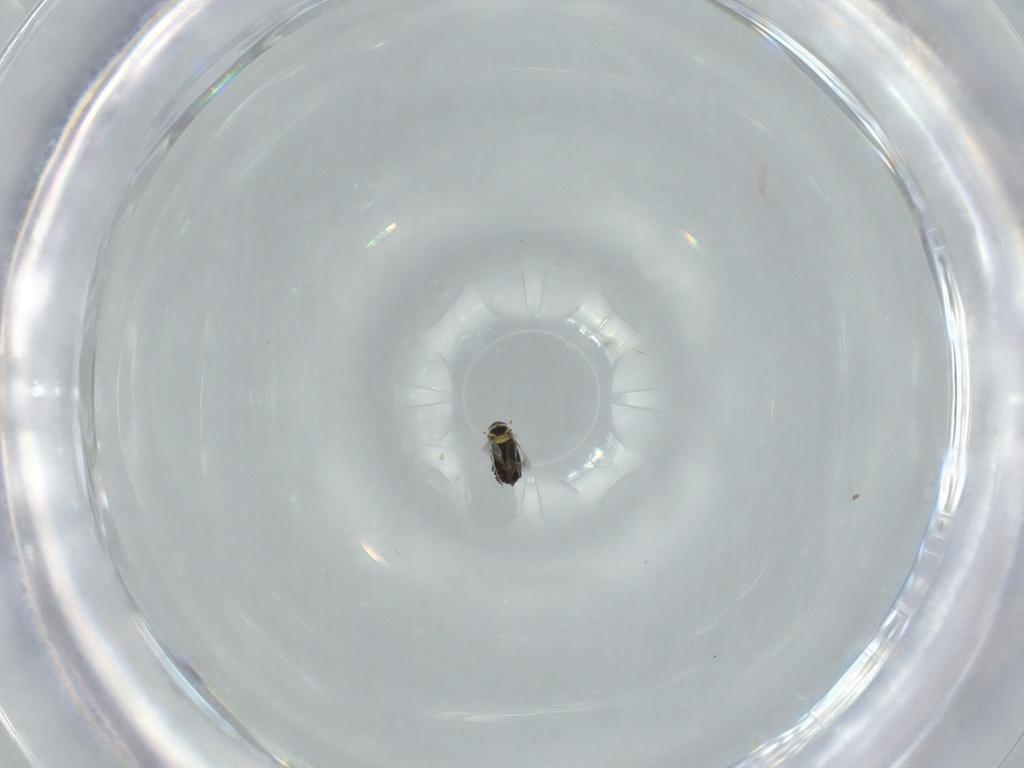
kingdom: Animalia
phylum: Arthropoda
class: Insecta
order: Hymenoptera
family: Signiphoridae
